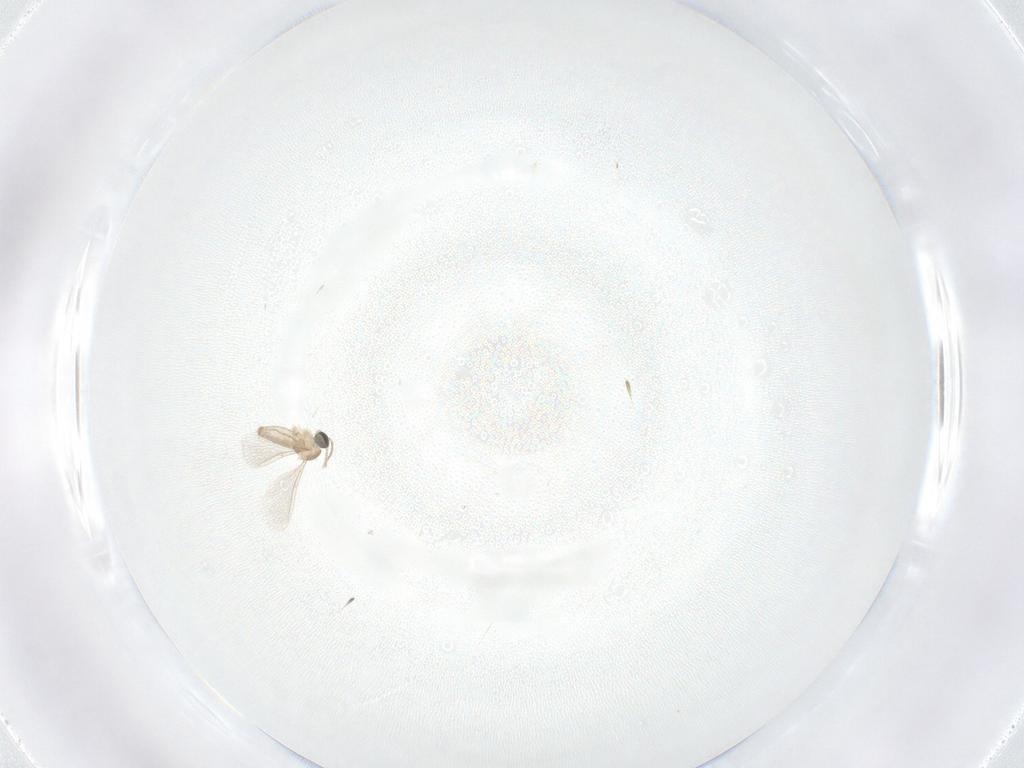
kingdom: Animalia
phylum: Arthropoda
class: Insecta
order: Diptera
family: Cecidomyiidae
